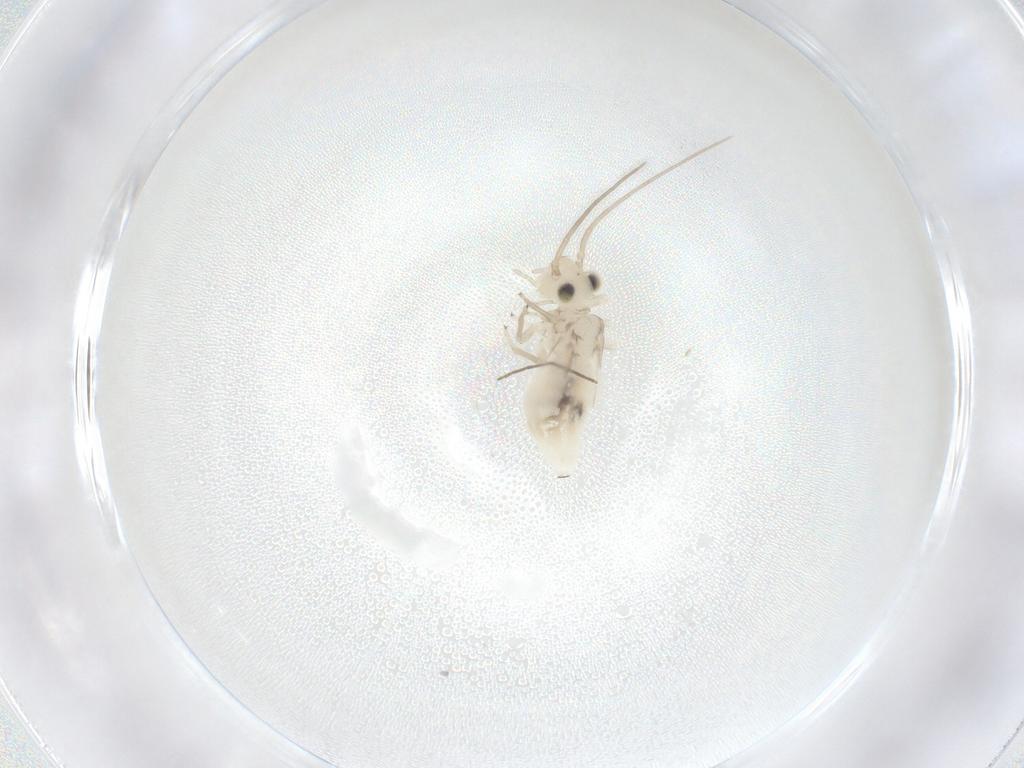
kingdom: Animalia
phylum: Arthropoda
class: Insecta
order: Psocodea
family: Caeciliusidae
